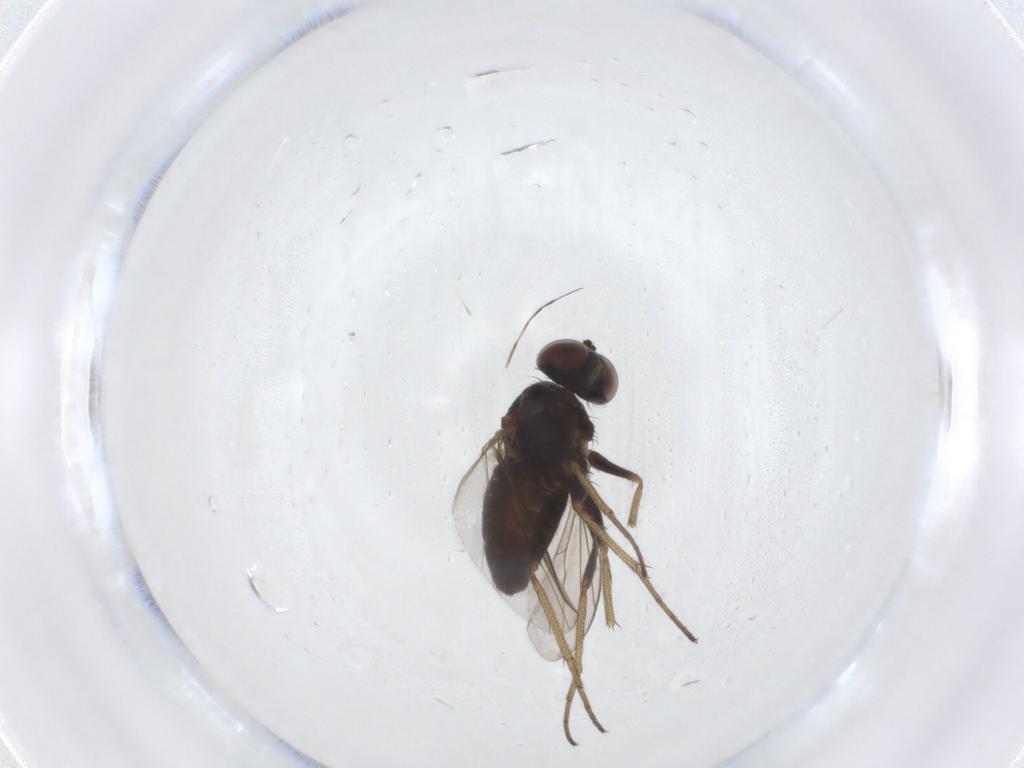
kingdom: Animalia
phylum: Arthropoda
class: Insecta
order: Diptera
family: Dolichopodidae
